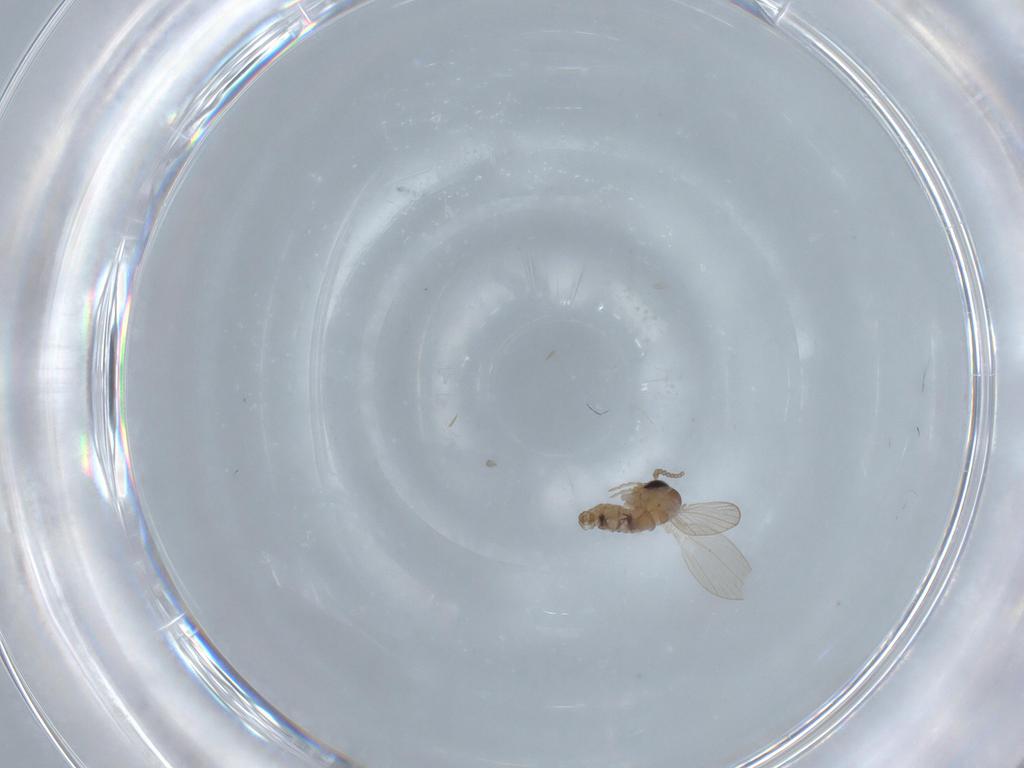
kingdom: Animalia
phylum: Arthropoda
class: Insecta
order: Diptera
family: Psychodidae
